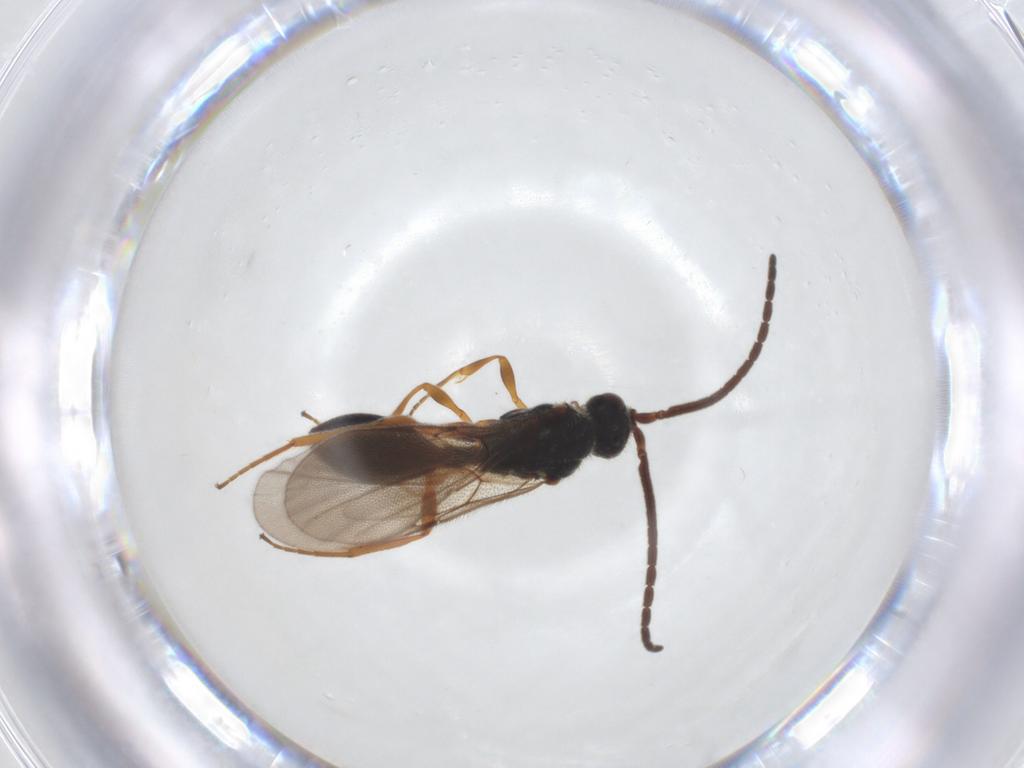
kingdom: Animalia
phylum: Arthropoda
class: Insecta
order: Hymenoptera
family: Diapriidae
